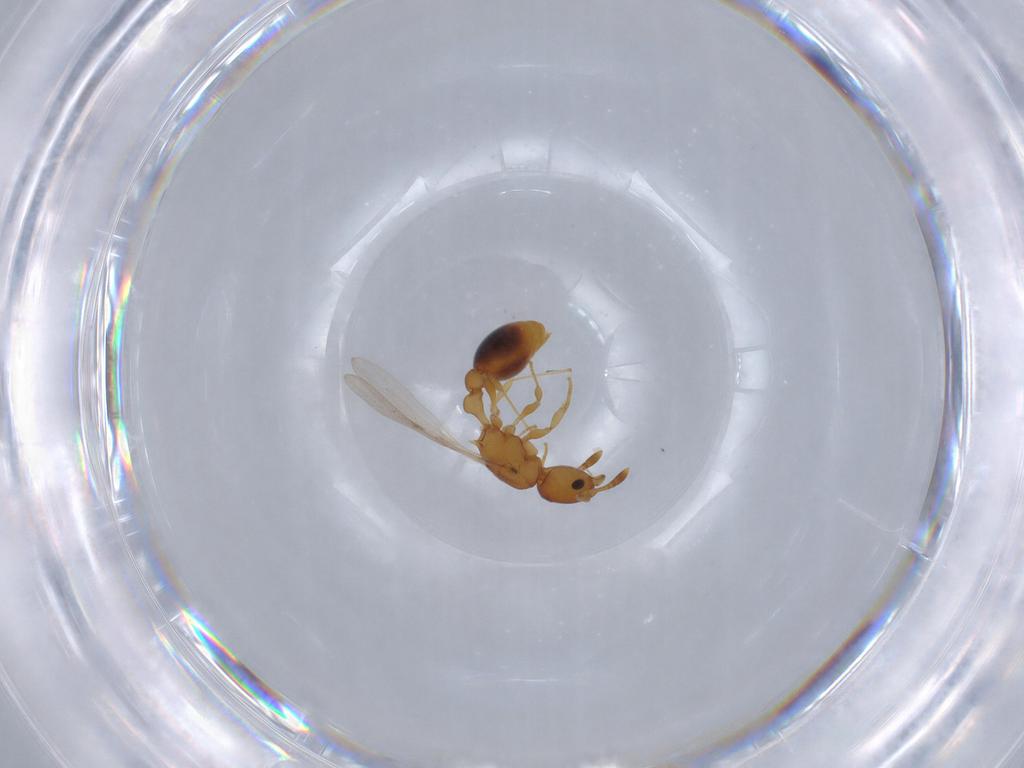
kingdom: Animalia
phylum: Arthropoda
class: Insecta
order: Hymenoptera
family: Formicidae
